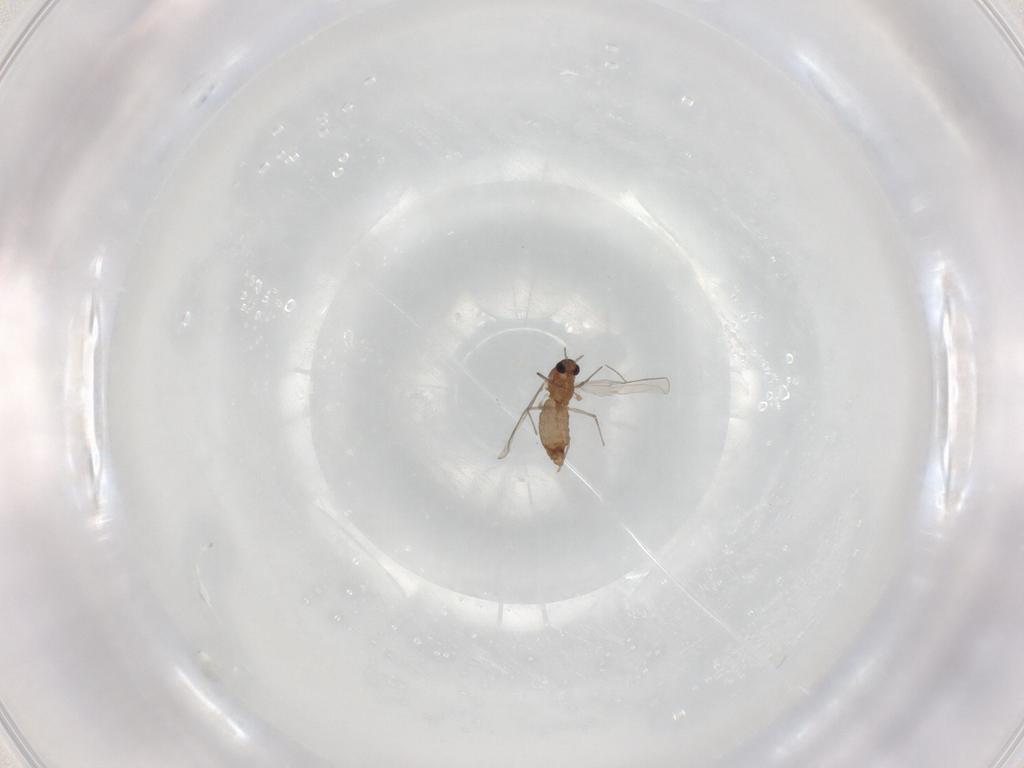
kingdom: Animalia
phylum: Arthropoda
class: Insecta
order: Diptera
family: Chironomidae
